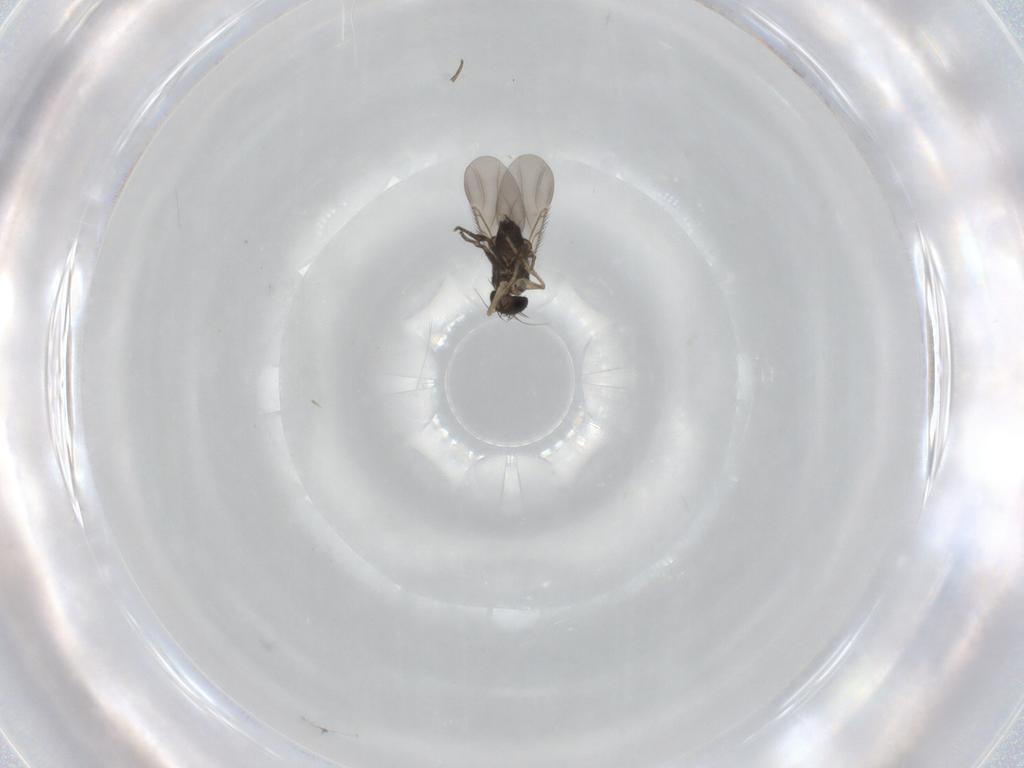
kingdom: Animalia
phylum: Arthropoda
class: Insecta
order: Diptera
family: Phoridae
